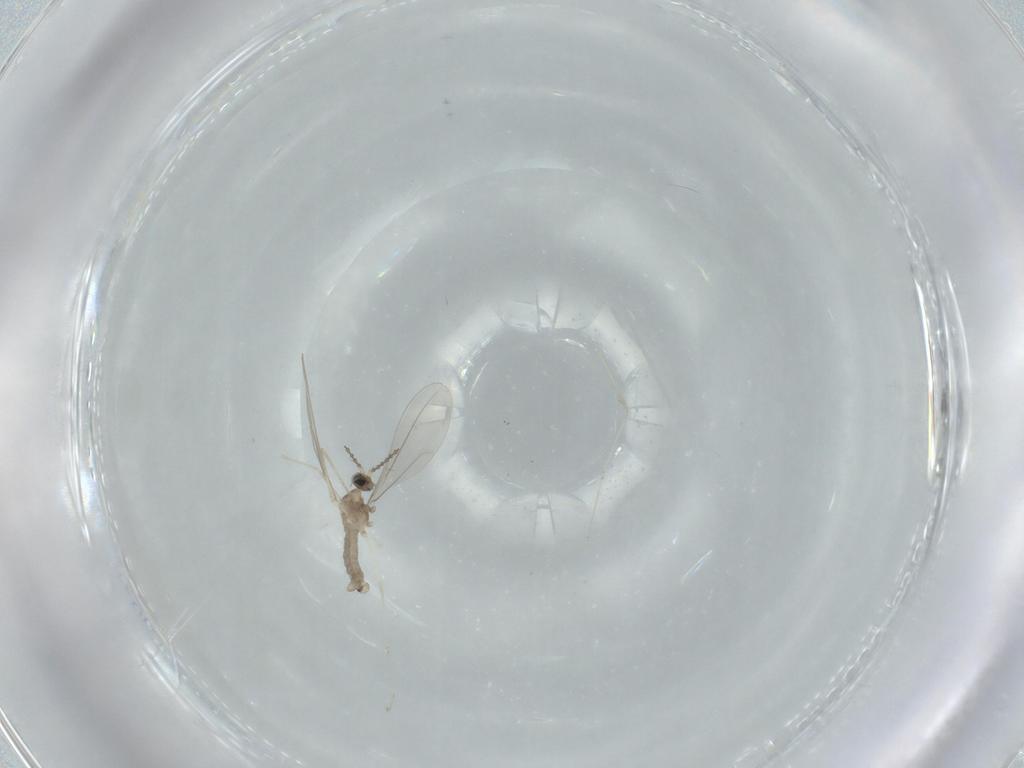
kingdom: Animalia
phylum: Arthropoda
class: Insecta
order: Diptera
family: Cecidomyiidae
